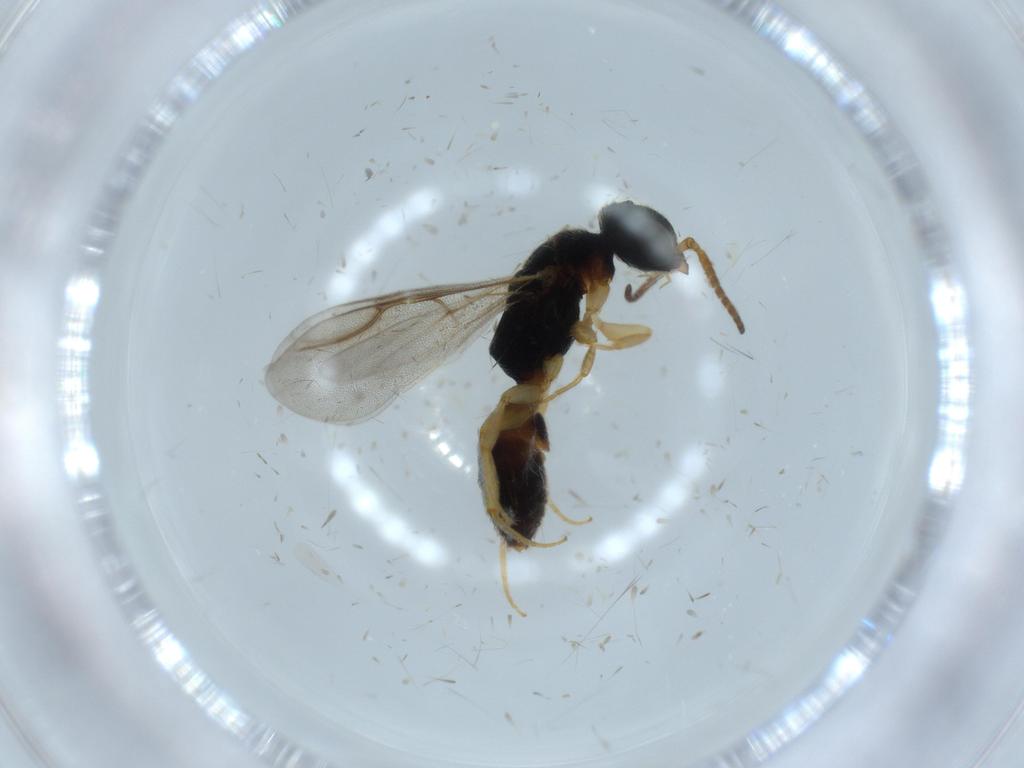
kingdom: Animalia
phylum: Arthropoda
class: Insecta
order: Hymenoptera
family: Bethylidae
